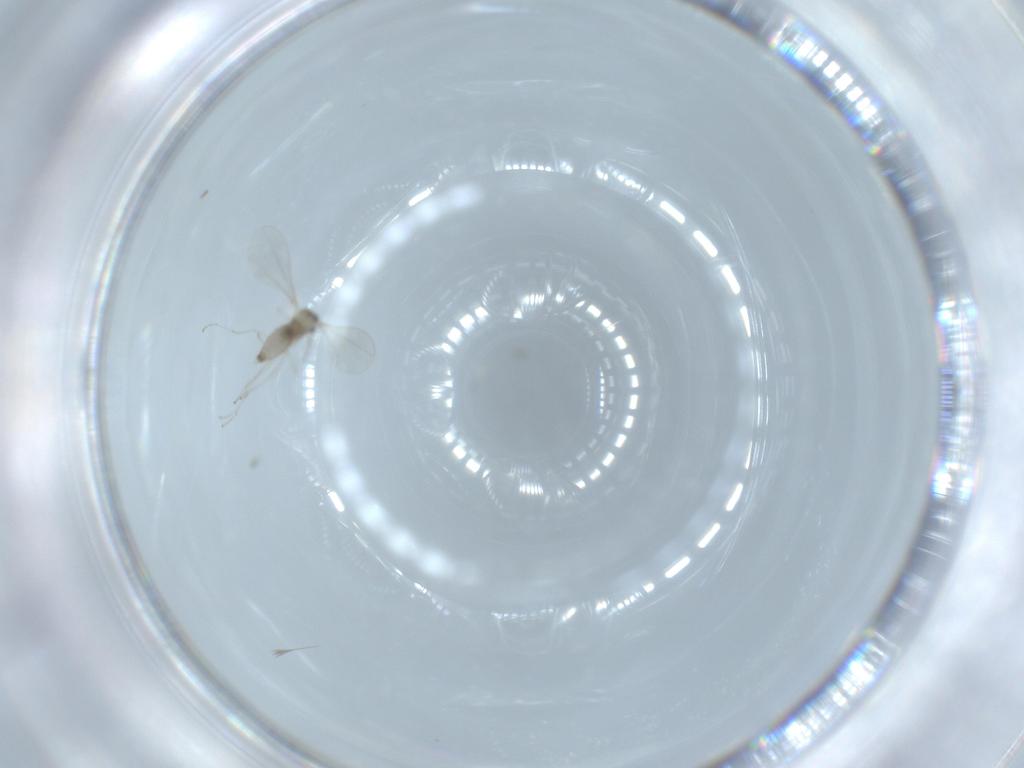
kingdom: Animalia
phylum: Arthropoda
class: Insecta
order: Diptera
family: Cecidomyiidae
